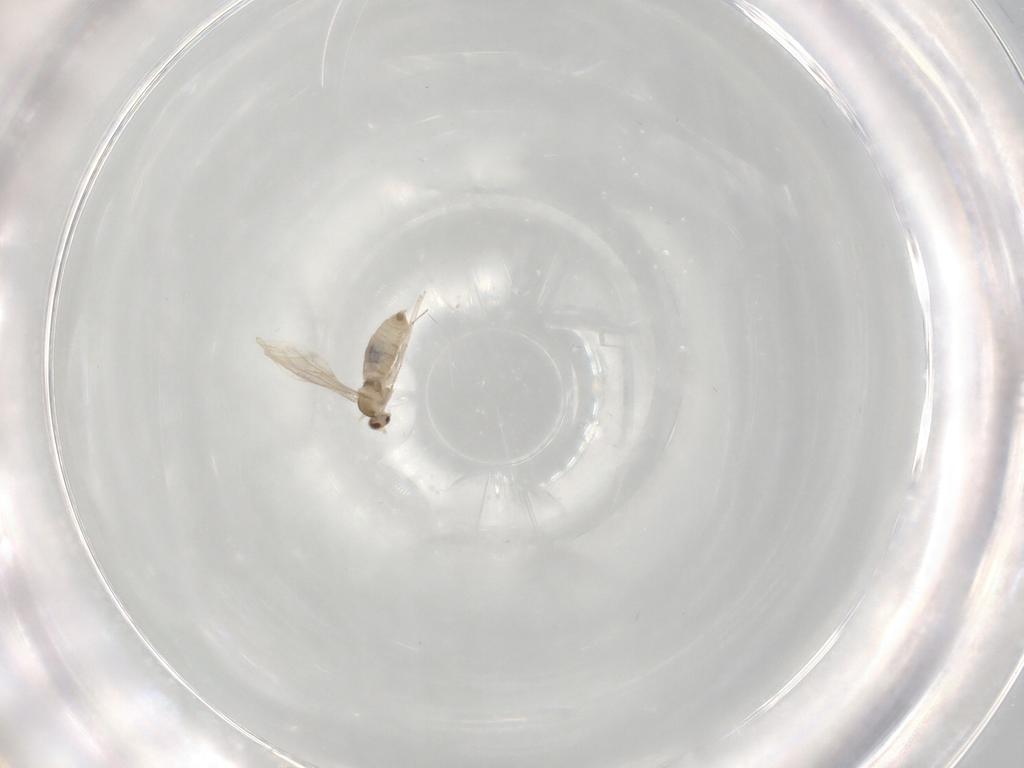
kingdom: Animalia
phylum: Arthropoda
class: Insecta
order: Diptera
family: Cecidomyiidae
